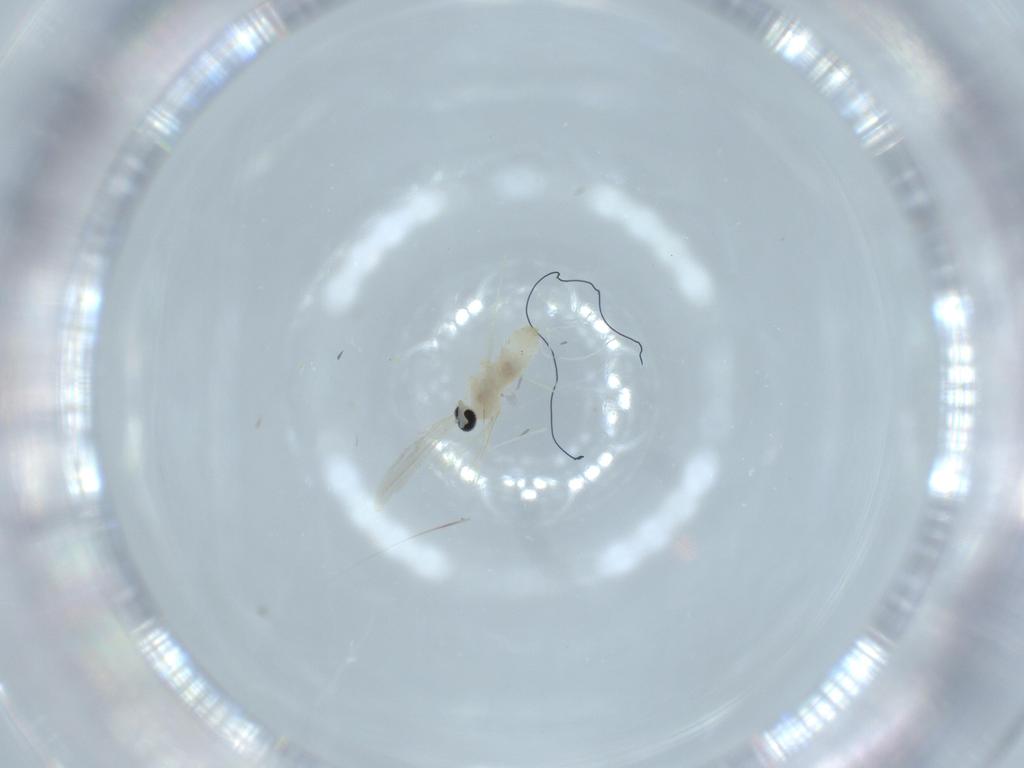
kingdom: Animalia
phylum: Arthropoda
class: Insecta
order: Diptera
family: Cecidomyiidae
